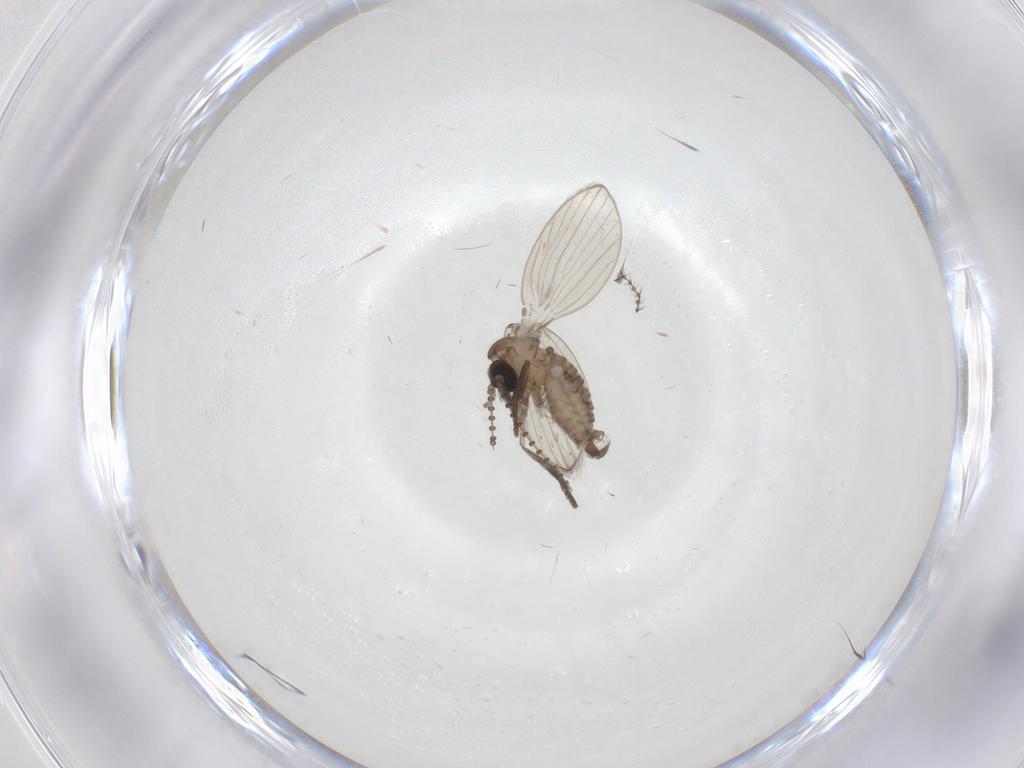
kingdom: Animalia
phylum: Arthropoda
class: Insecta
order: Diptera
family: Psychodidae
